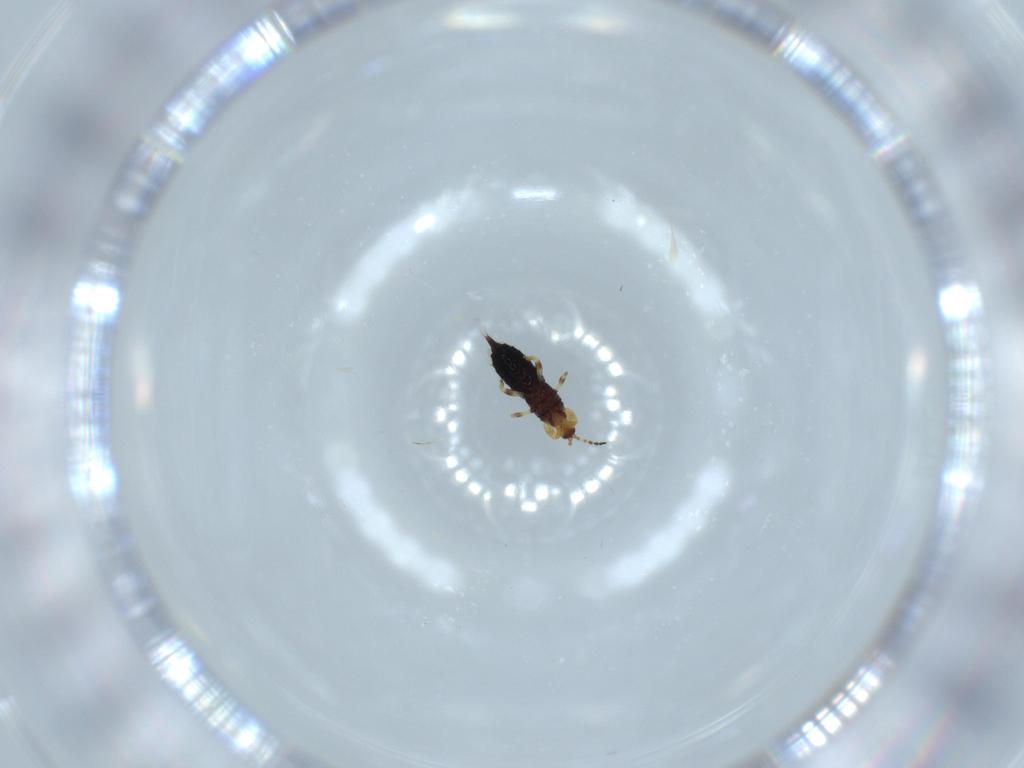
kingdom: Animalia
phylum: Arthropoda
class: Insecta
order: Thysanoptera
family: Phlaeothripidae
